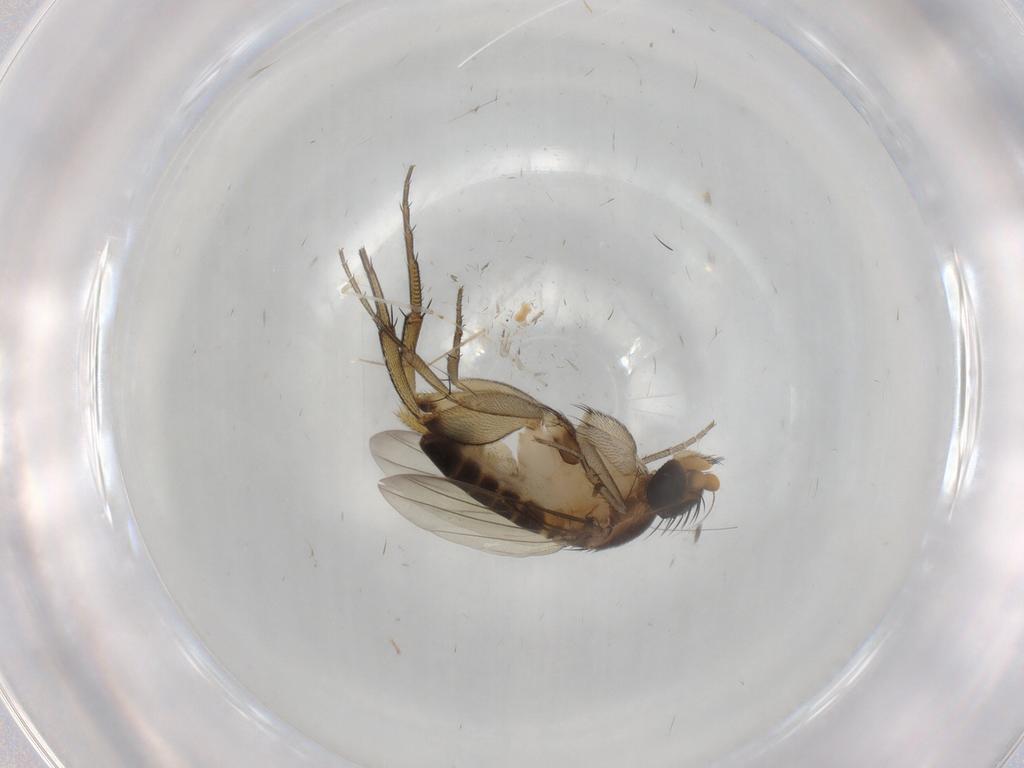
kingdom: Animalia
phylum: Arthropoda
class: Insecta
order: Diptera
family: Phoridae
